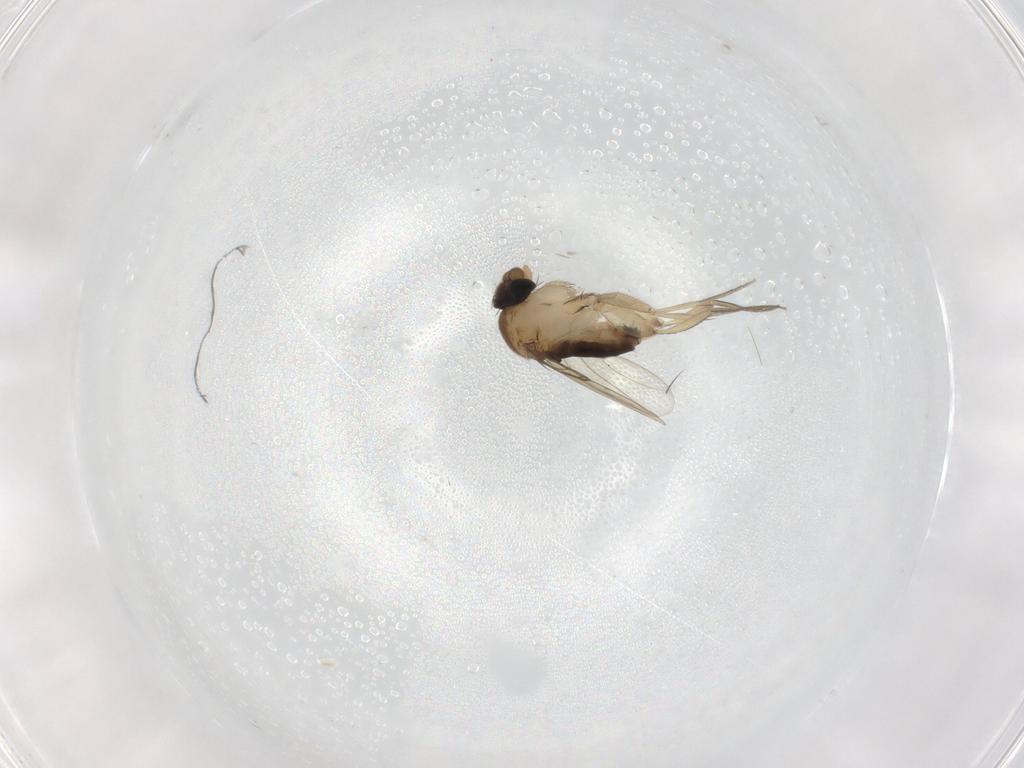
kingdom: Animalia
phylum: Arthropoda
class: Insecta
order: Diptera
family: Phoridae
